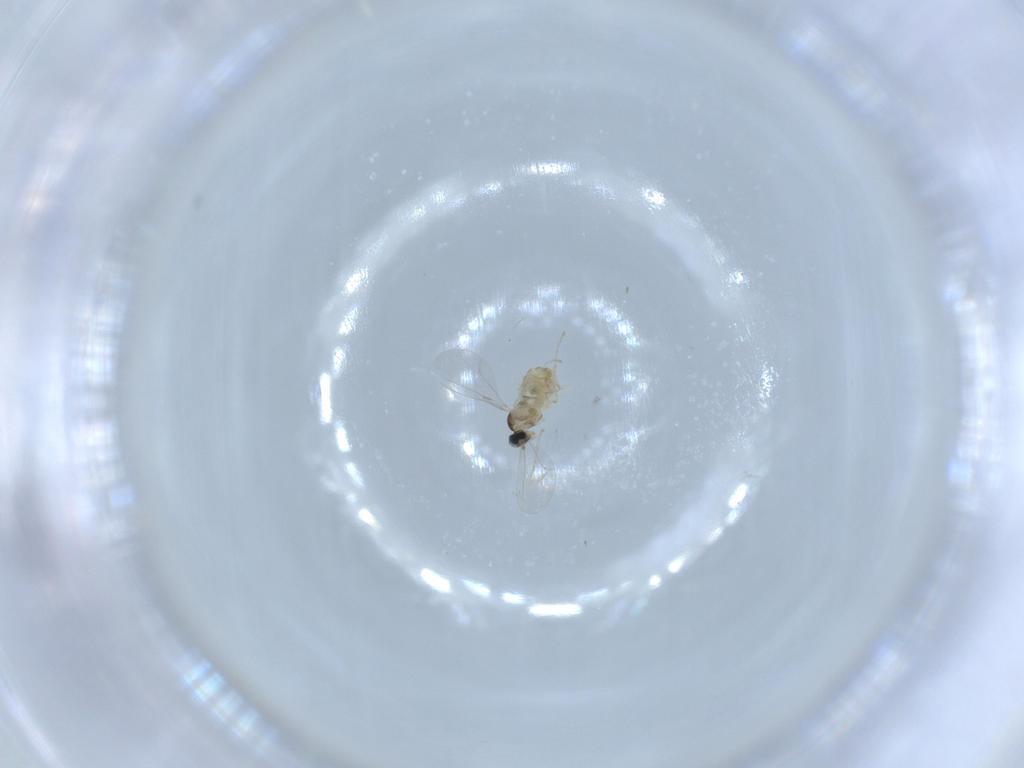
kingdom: Animalia
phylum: Arthropoda
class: Insecta
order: Diptera
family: Cecidomyiidae
